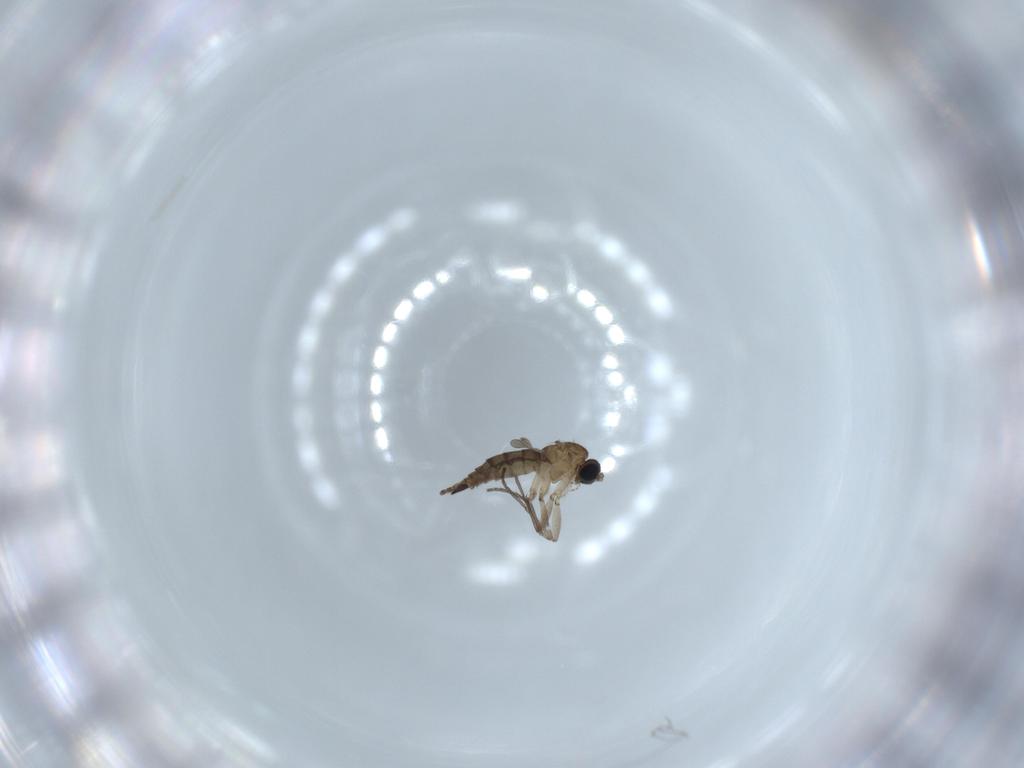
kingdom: Animalia
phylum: Arthropoda
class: Insecta
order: Diptera
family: Sciaridae
